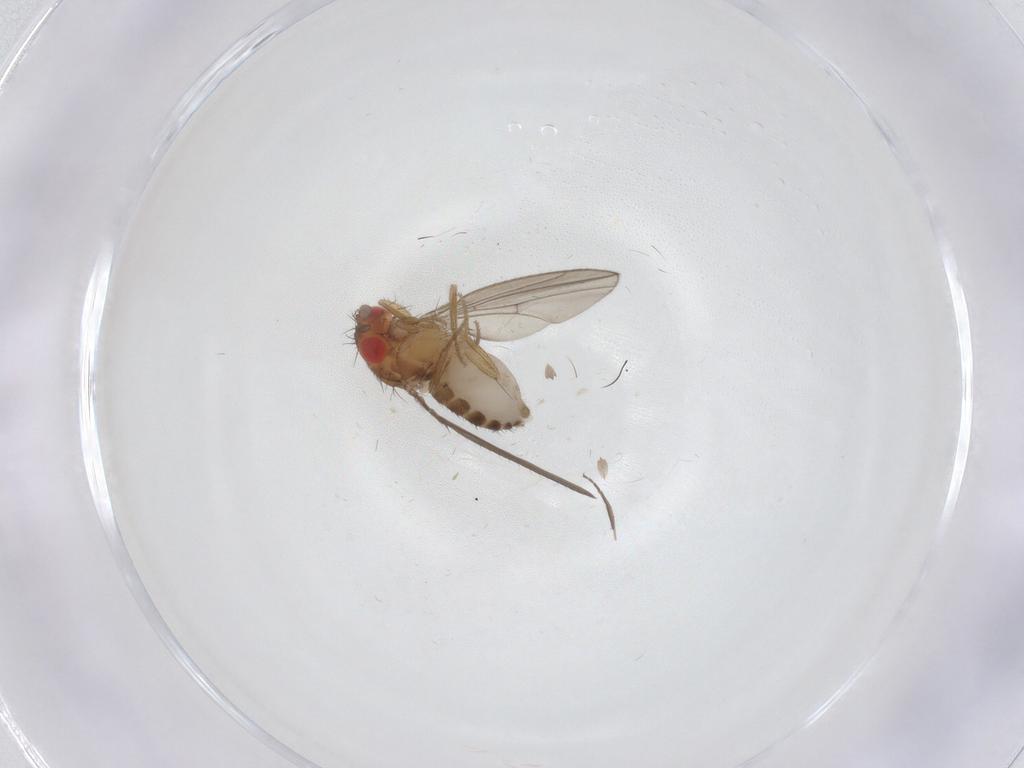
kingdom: Animalia
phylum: Arthropoda
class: Insecta
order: Diptera
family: Drosophilidae
